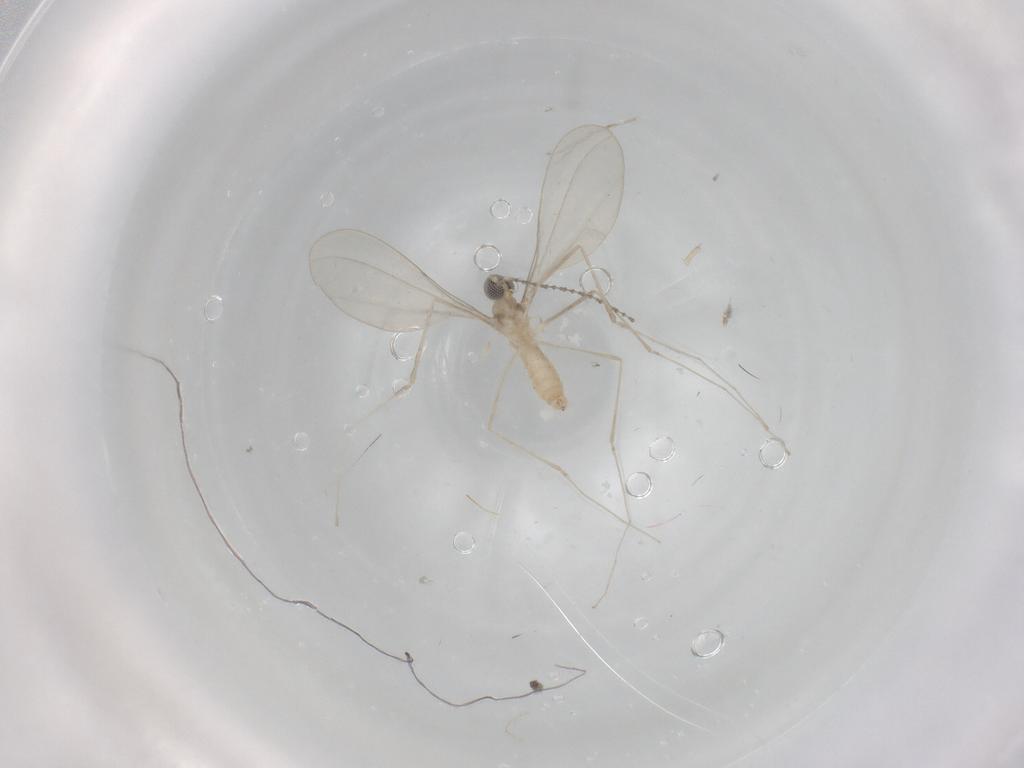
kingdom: Animalia
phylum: Arthropoda
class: Insecta
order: Diptera
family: Cecidomyiidae
